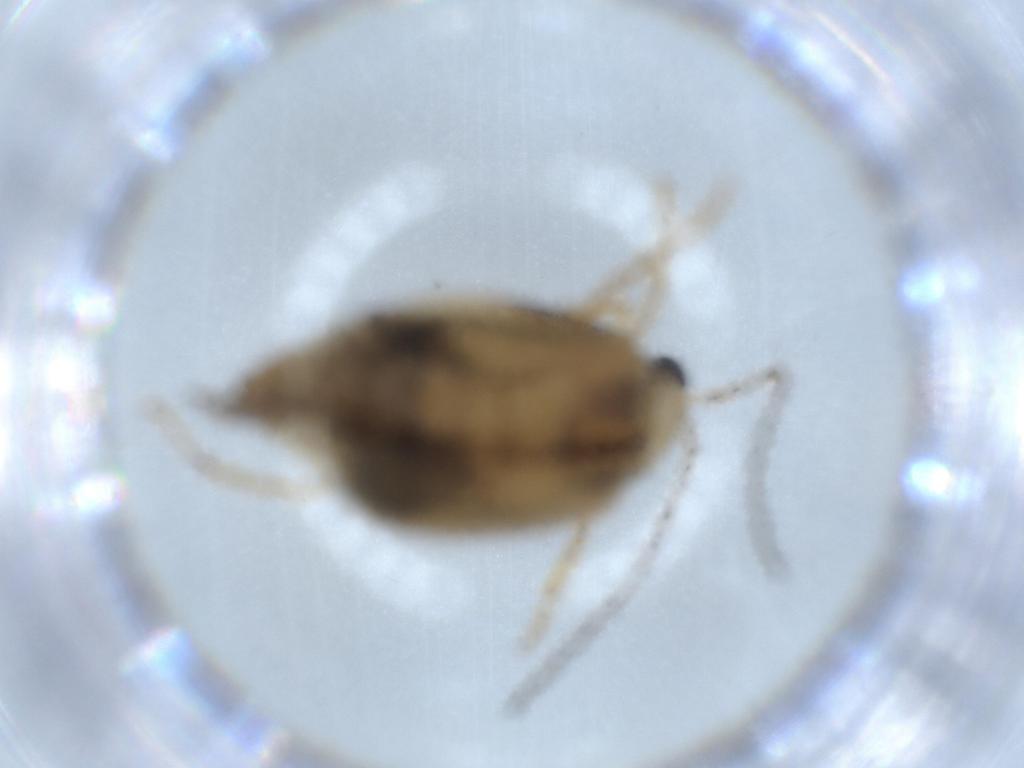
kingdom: Animalia
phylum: Arthropoda
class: Insecta
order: Coleoptera
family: Chrysomelidae
